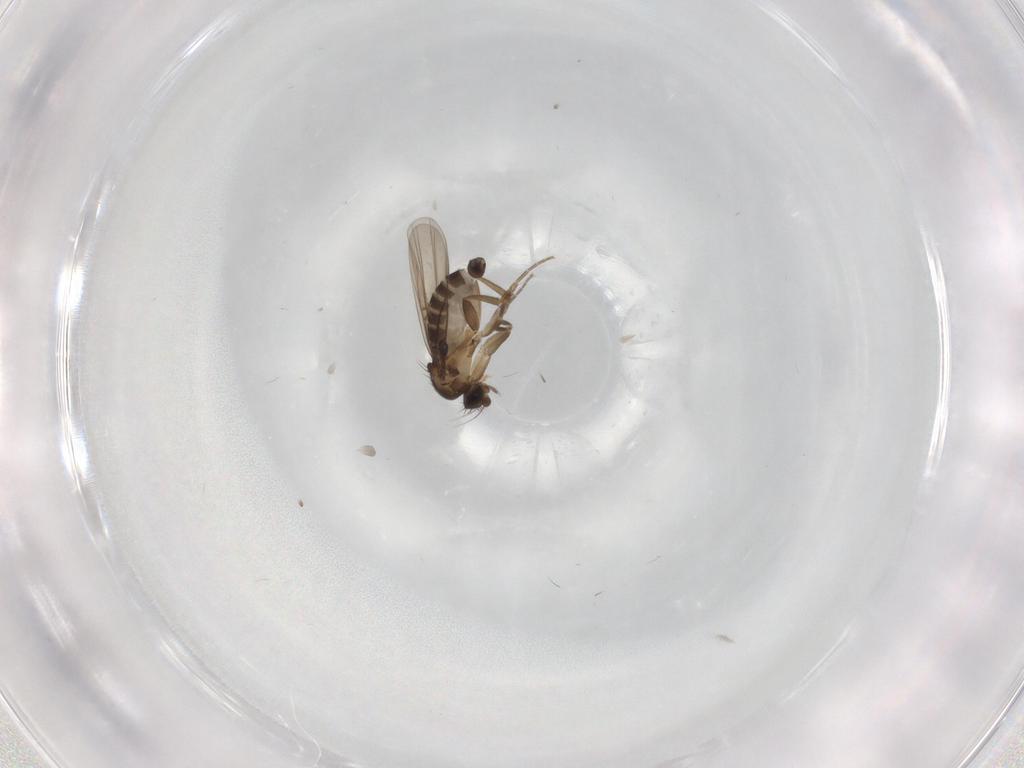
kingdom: Animalia
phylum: Arthropoda
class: Insecta
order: Diptera
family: Phoridae
